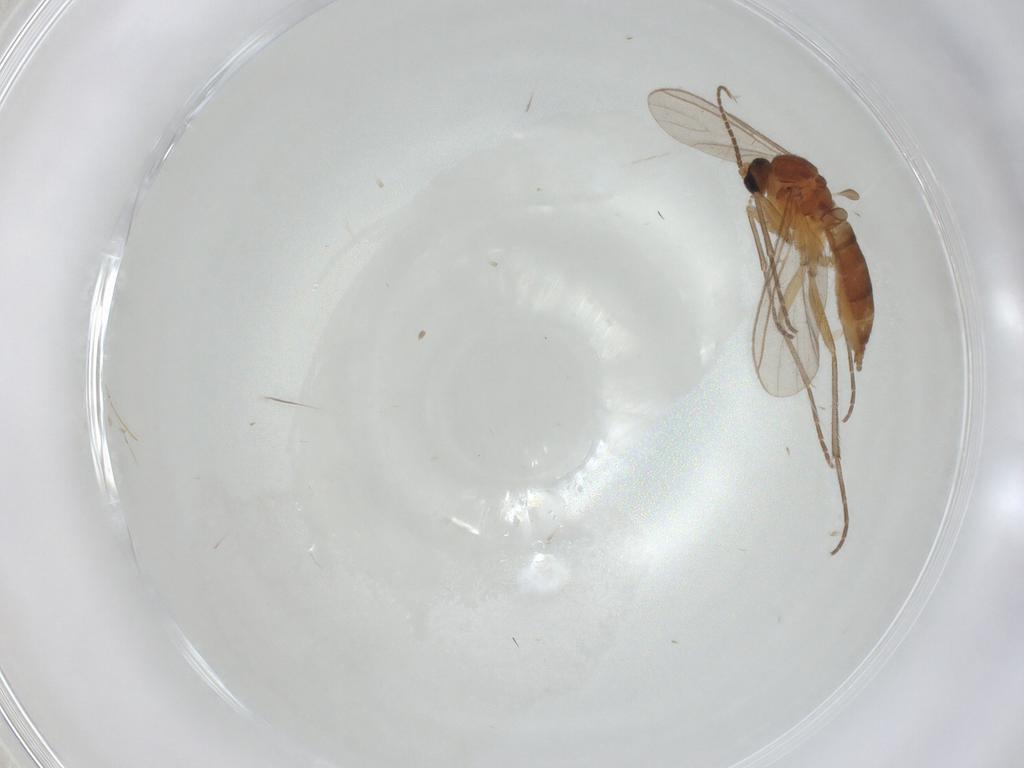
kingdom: Animalia
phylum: Arthropoda
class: Insecta
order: Diptera
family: Sciaridae
